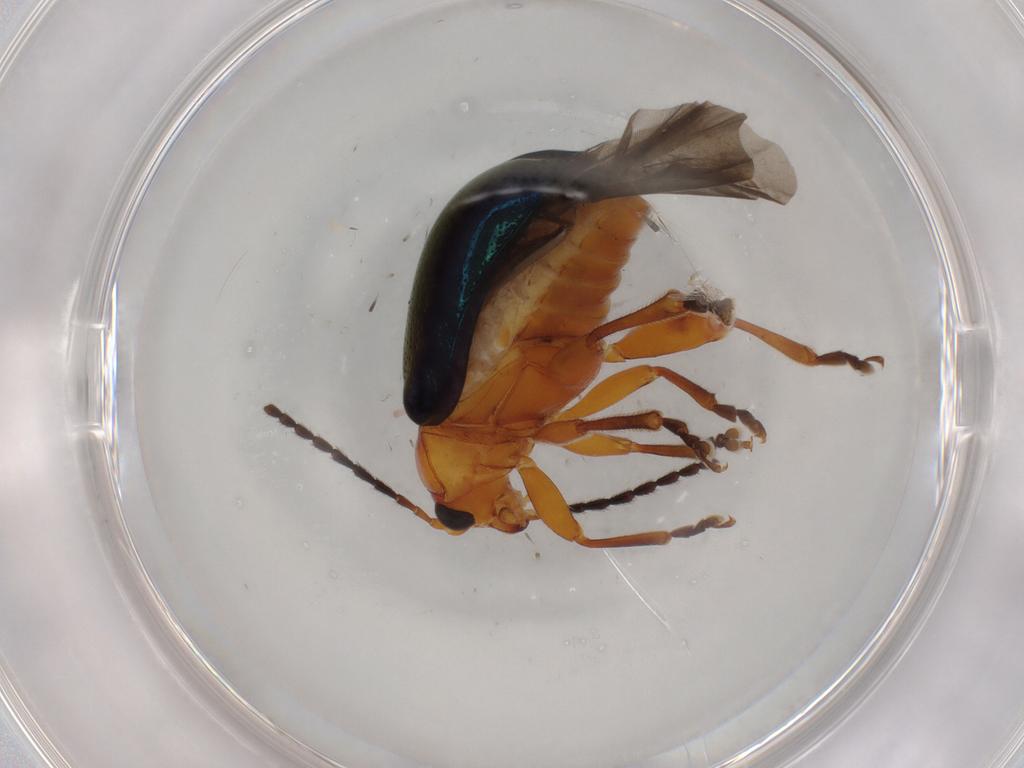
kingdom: Animalia
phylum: Arthropoda
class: Insecta
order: Coleoptera
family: Chrysomelidae
